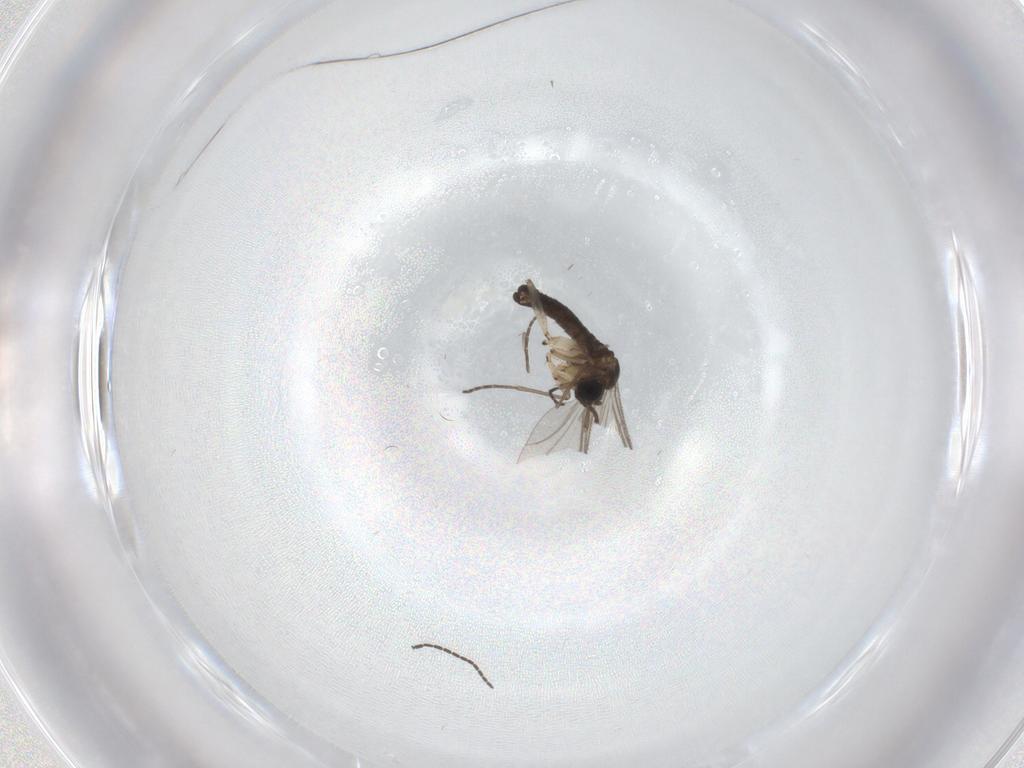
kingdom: Animalia
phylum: Arthropoda
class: Insecta
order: Diptera
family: Sciaridae
